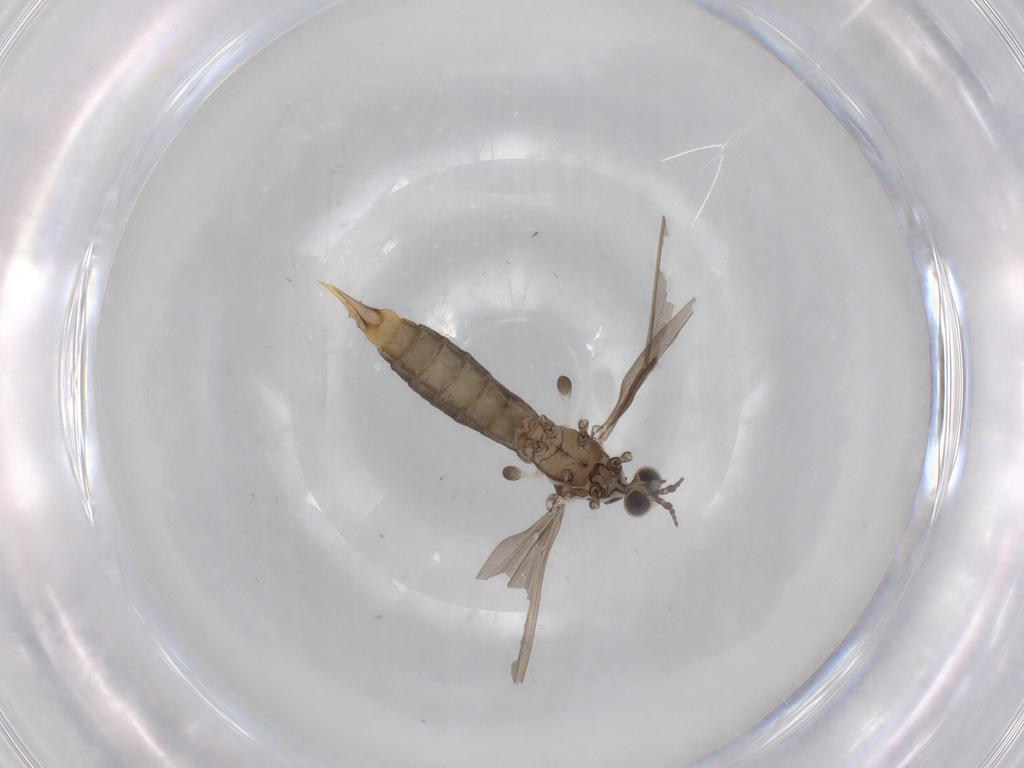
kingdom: Animalia
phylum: Arthropoda
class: Insecta
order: Diptera
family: Limoniidae
